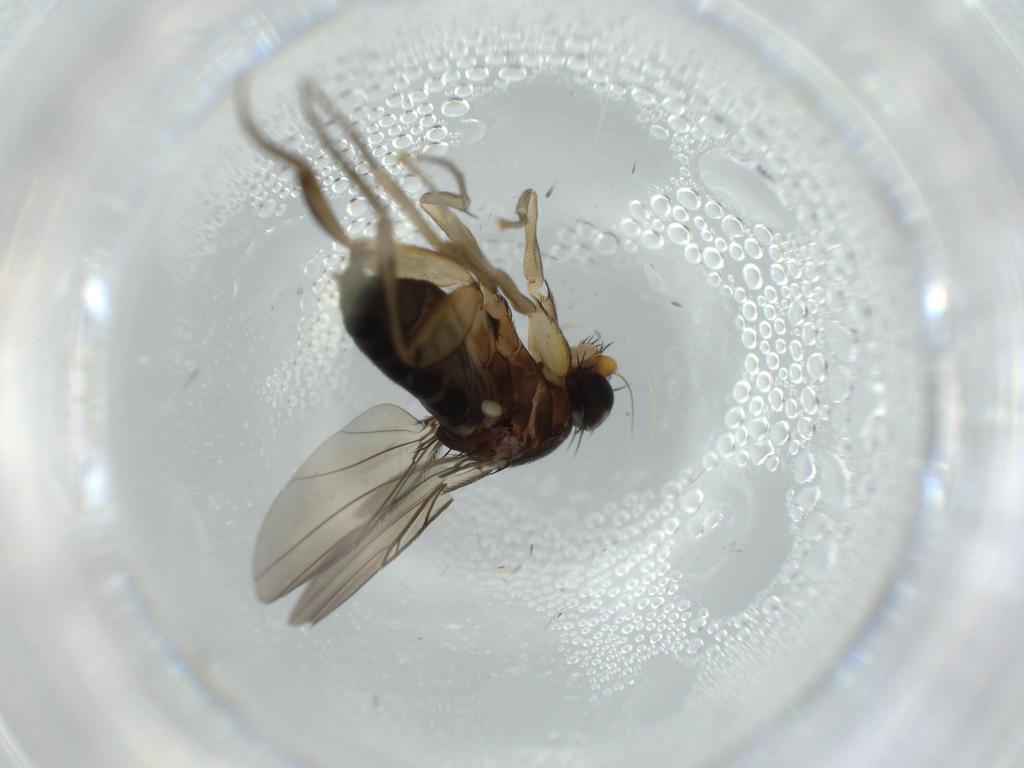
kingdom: Animalia
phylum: Arthropoda
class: Insecta
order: Diptera
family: Phoridae
